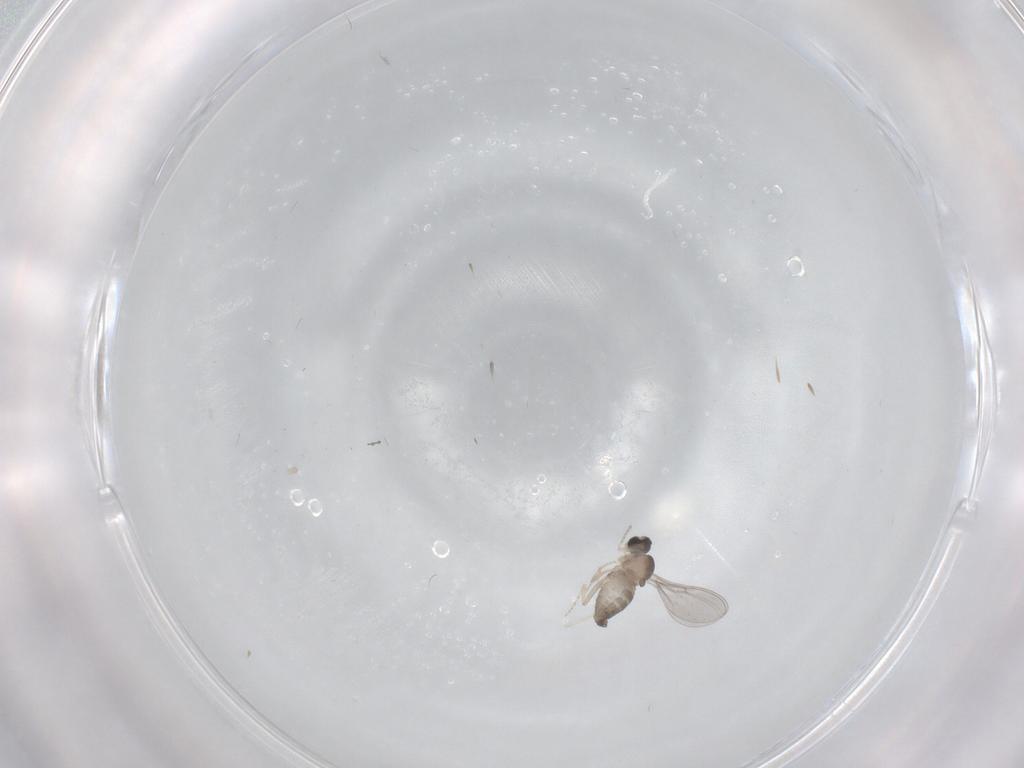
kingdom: Animalia
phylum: Arthropoda
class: Insecta
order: Diptera
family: Cecidomyiidae
